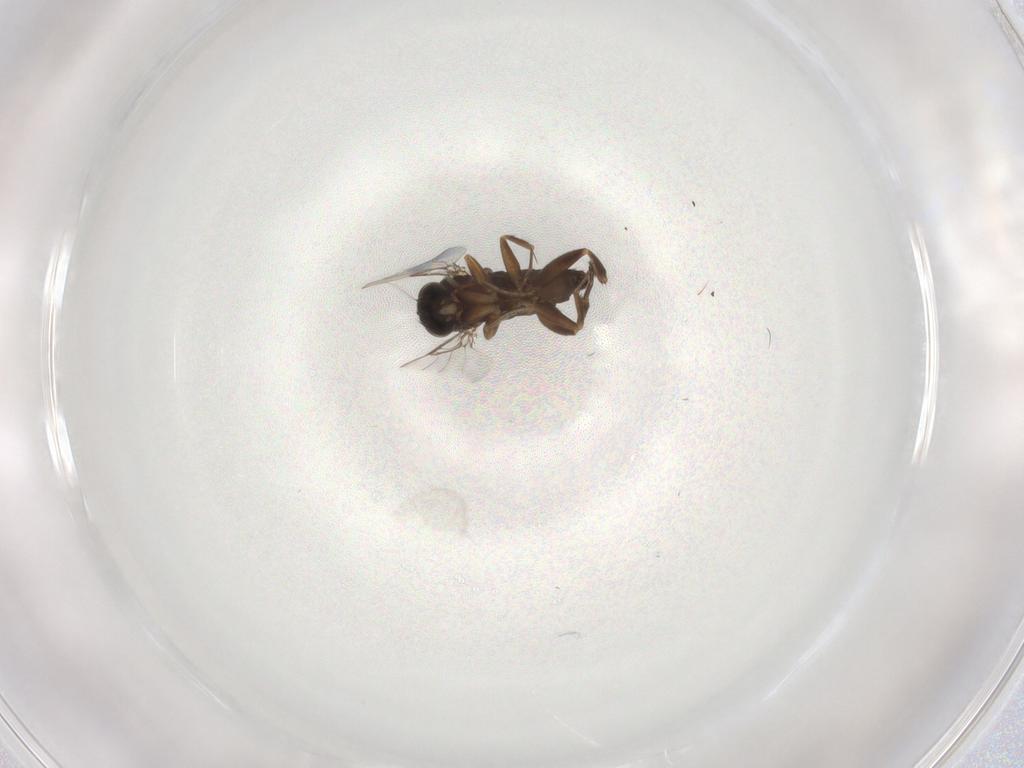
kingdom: Animalia
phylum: Arthropoda
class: Insecta
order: Diptera
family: Phoridae
